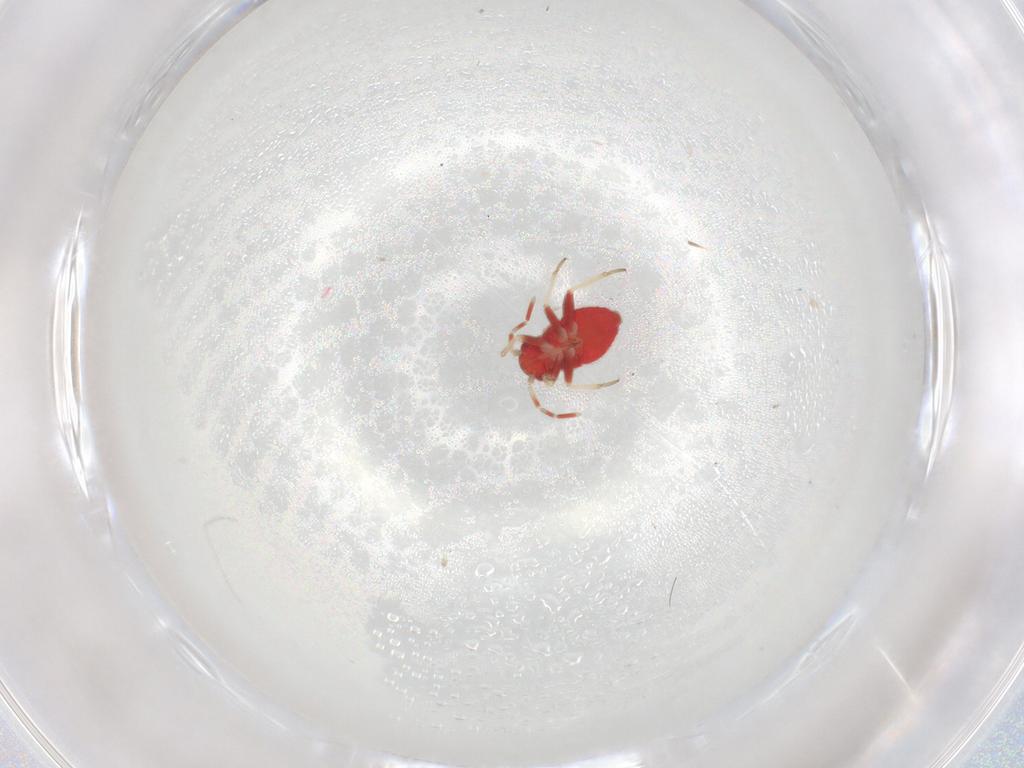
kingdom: Animalia
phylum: Arthropoda
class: Insecta
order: Hemiptera
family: Miridae
